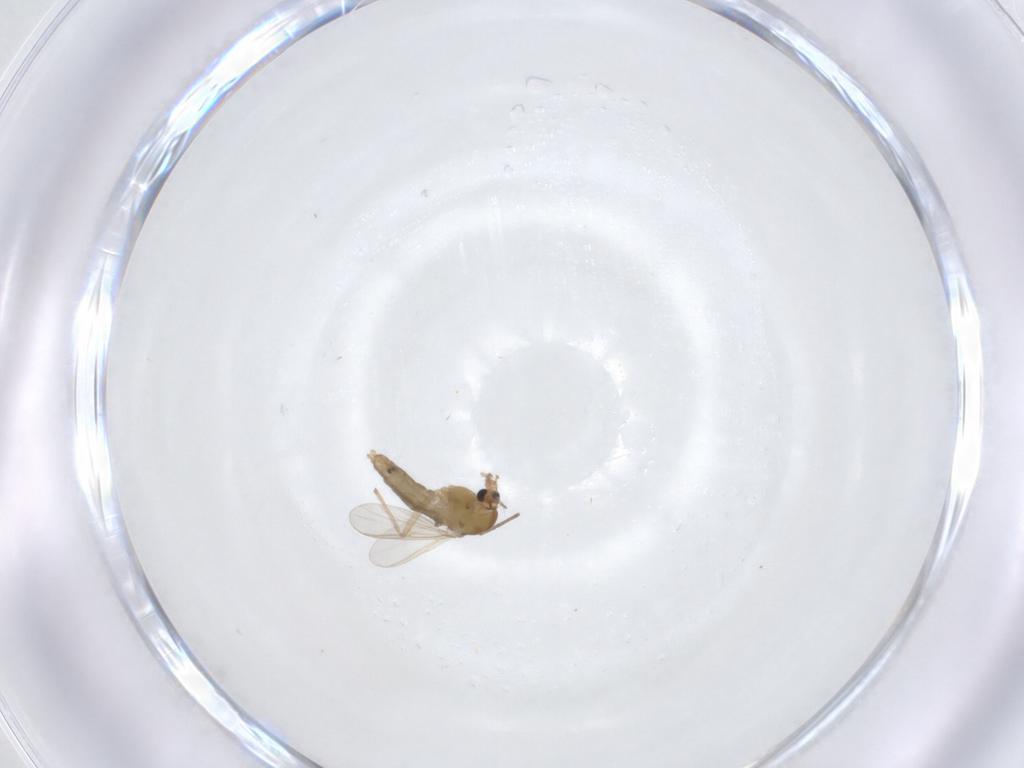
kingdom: Animalia
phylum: Arthropoda
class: Insecta
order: Diptera
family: Chironomidae
